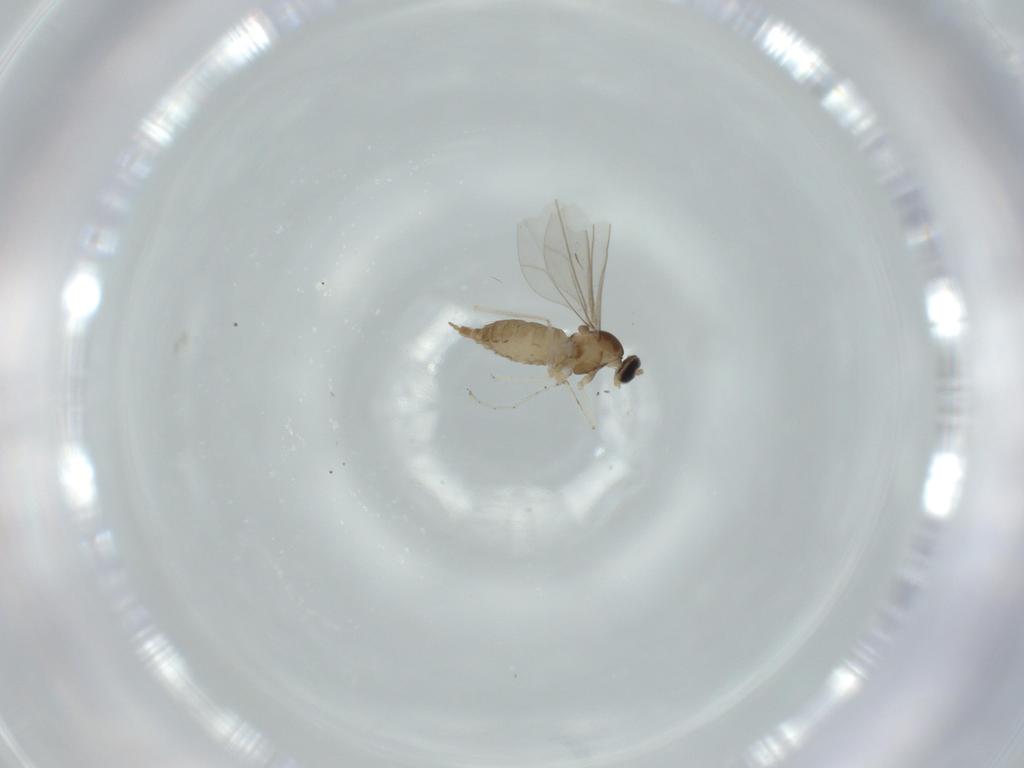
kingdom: Animalia
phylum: Arthropoda
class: Insecta
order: Diptera
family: Cecidomyiidae
